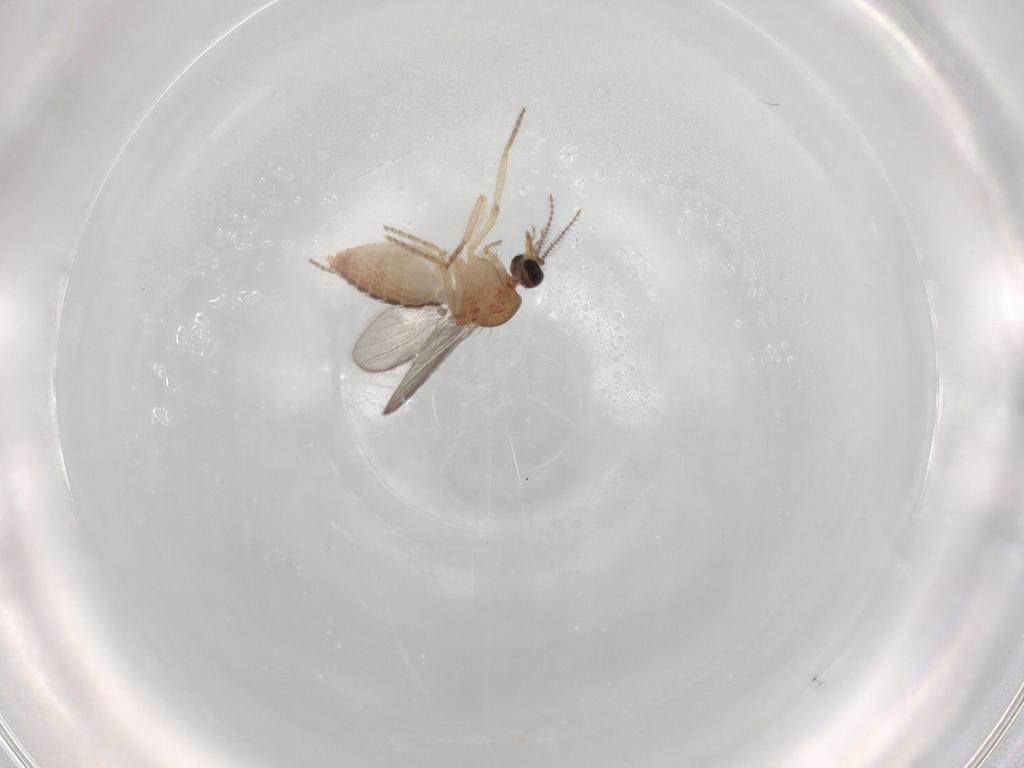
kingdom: Animalia
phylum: Arthropoda
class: Insecta
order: Diptera
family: Ceratopogonidae
